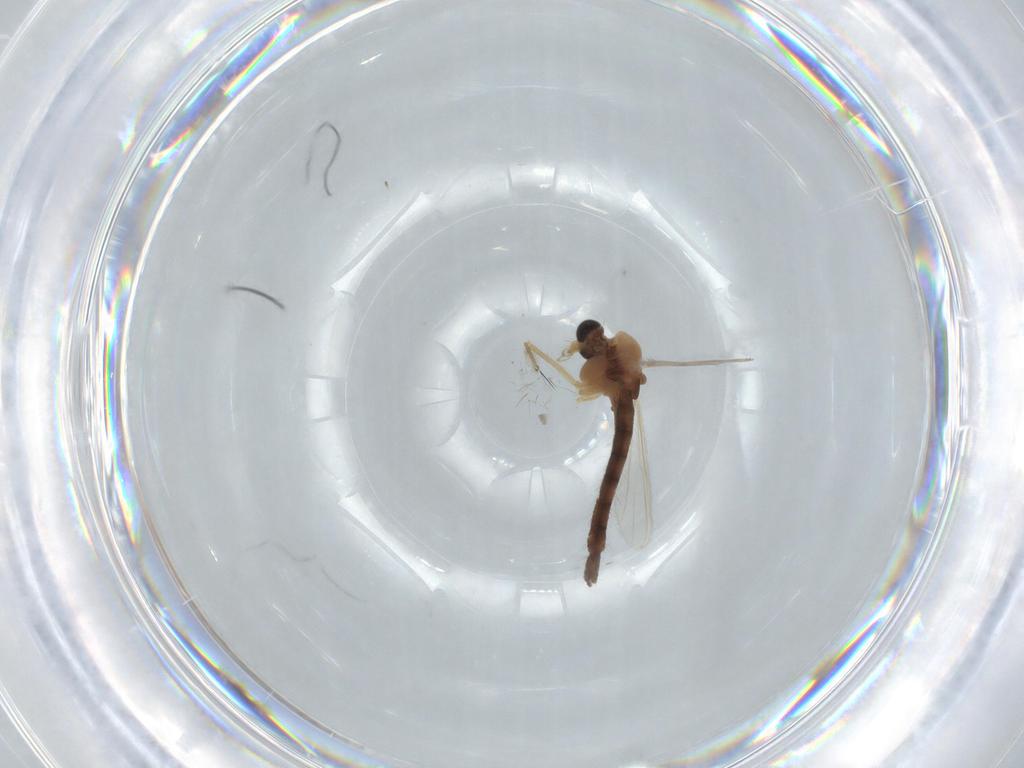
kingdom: Animalia
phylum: Arthropoda
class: Insecta
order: Diptera
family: Chironomidae
